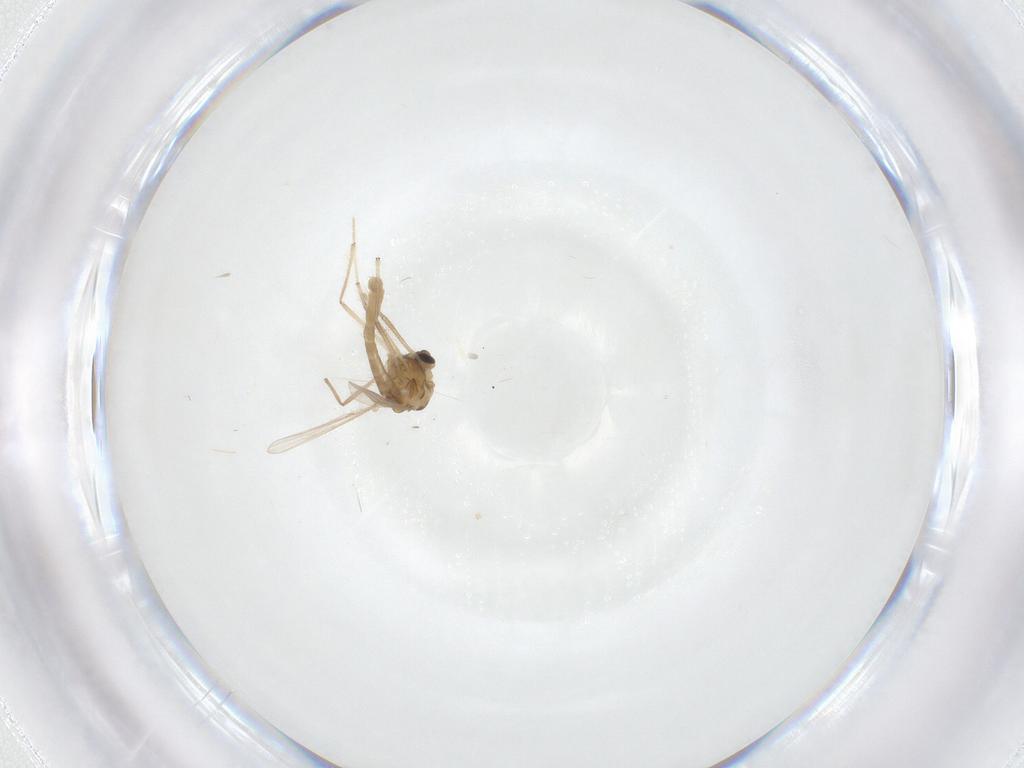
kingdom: Animalia
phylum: Arthropoda
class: Insecta
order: Diptera
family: Chironomidae
